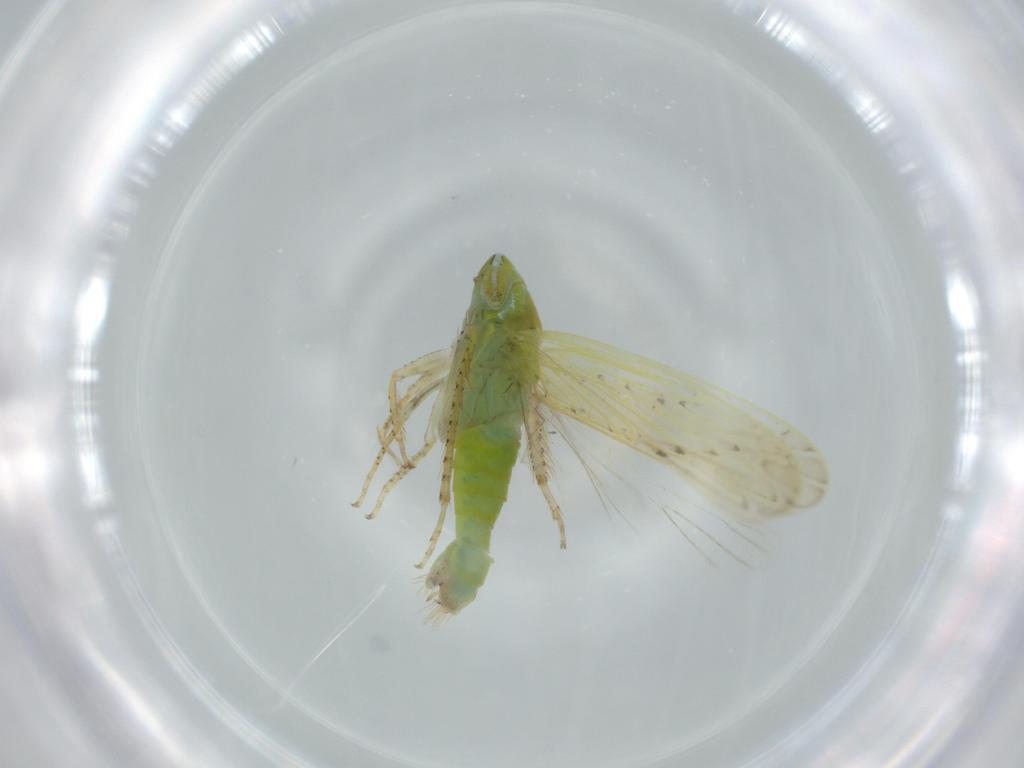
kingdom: Animalia
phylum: Arthropoda
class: Insecta
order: Hemiptera
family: Cicadellidae
